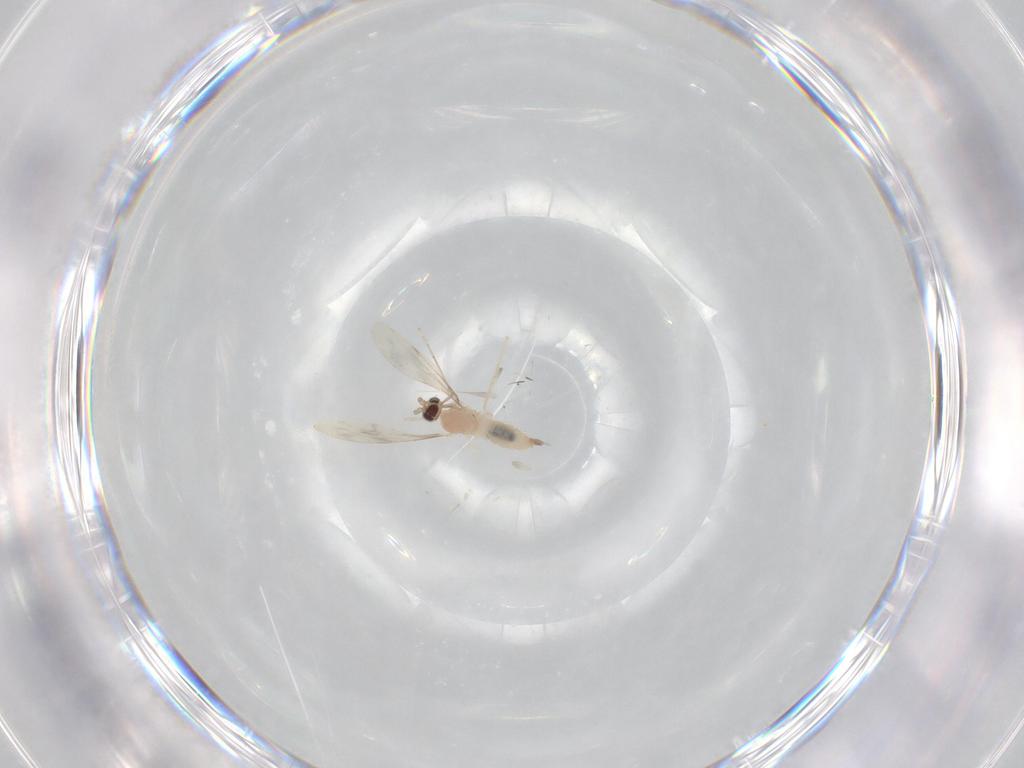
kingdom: Animalia
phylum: Arthropoda
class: Insecta
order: Diptera
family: Cecidomyiidae
